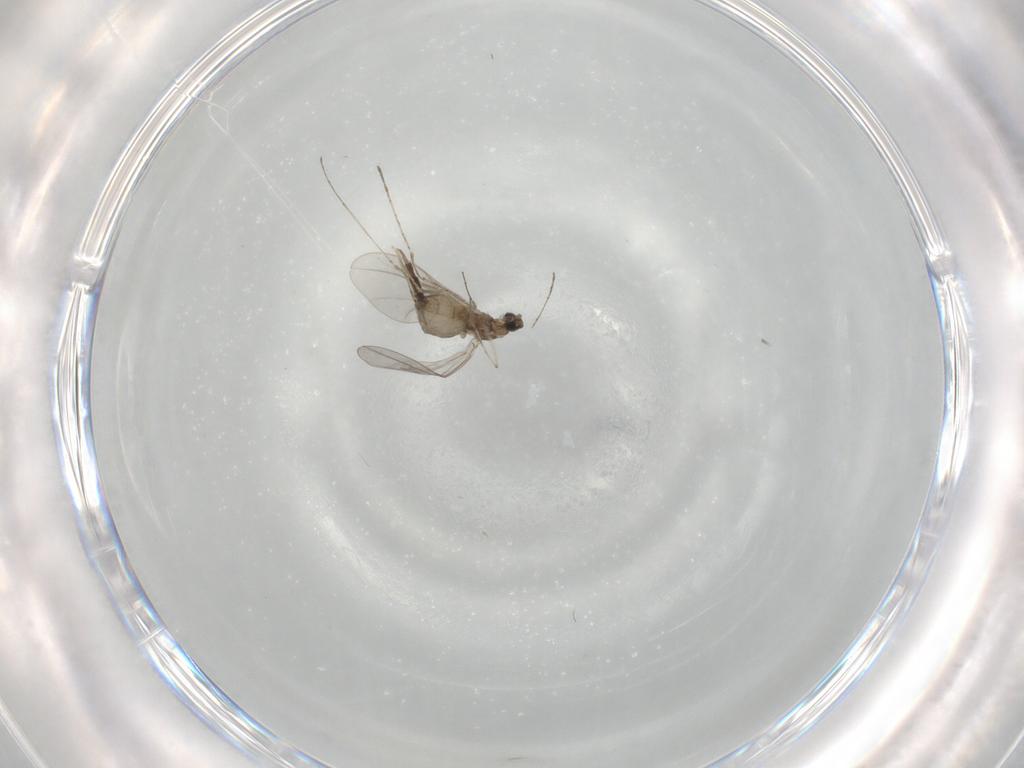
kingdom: Animalia
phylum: Arthropoda
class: Insecta
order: Diptera
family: Cecidomyiidae
